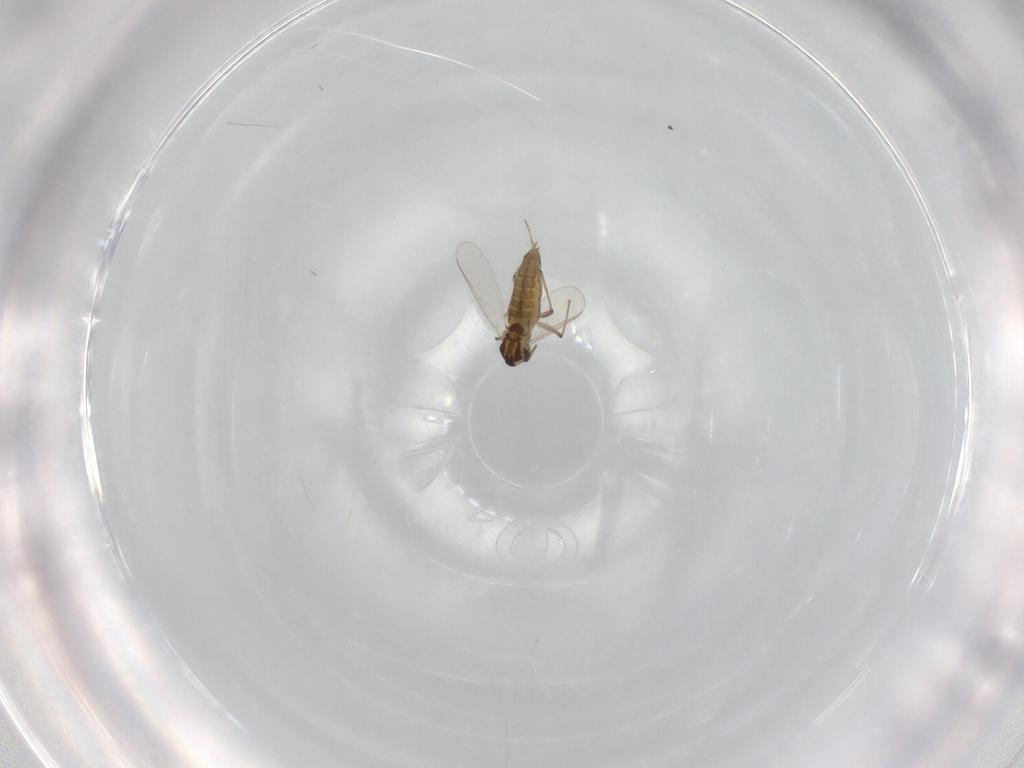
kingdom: Animalia
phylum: Arthropoda
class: Insecta
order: Diptera
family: Chironomidae
